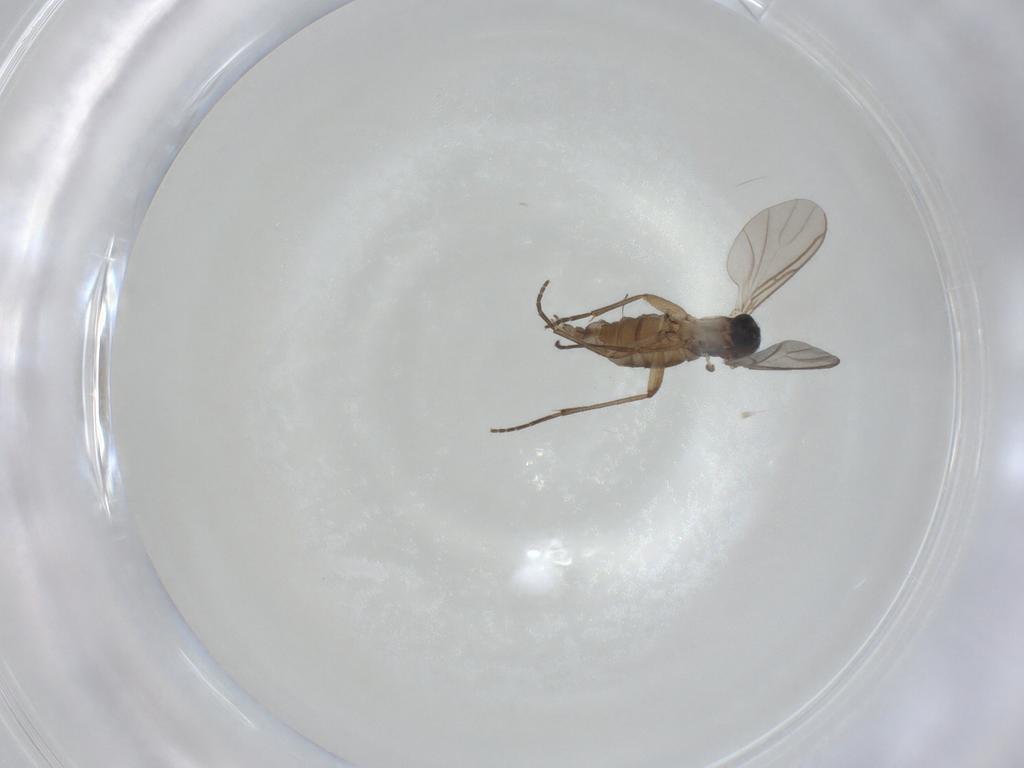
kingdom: Animalia
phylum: Arthropoda
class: Insecta
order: Diptera
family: Sciaridae
